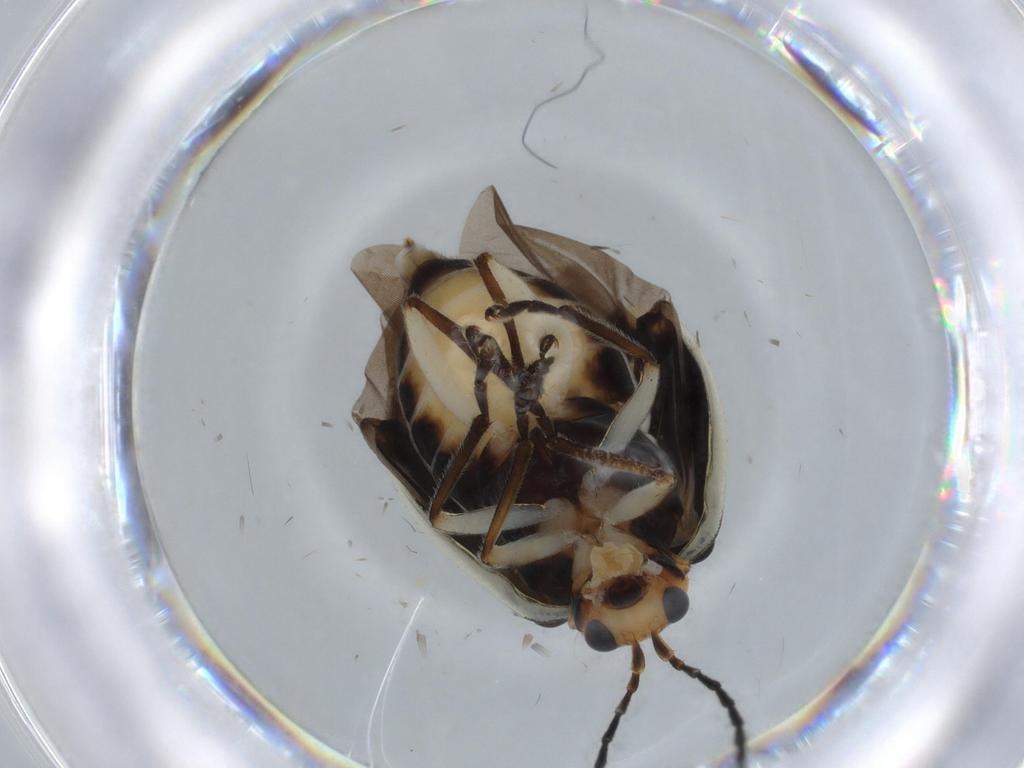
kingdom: Animalia
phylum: Arthropoda
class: Insecta
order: Coleoptera
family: Chrysomelidae
